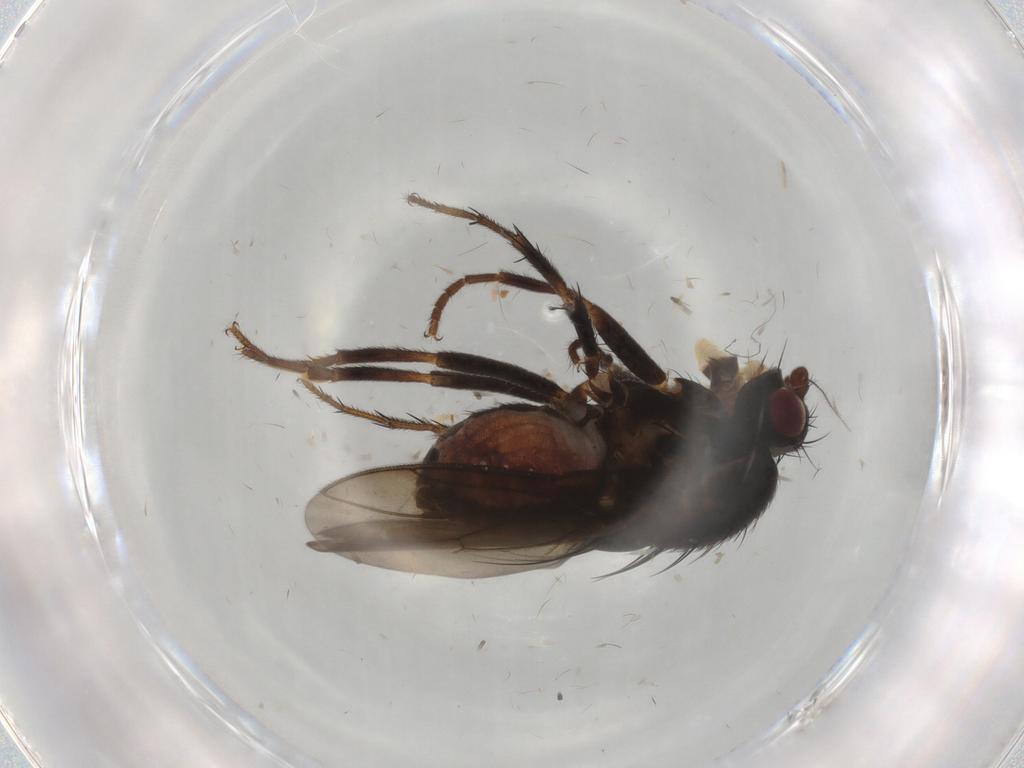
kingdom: Animalia
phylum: Arthropoda
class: Insecta
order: Diptera
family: Sphaeroceridae
